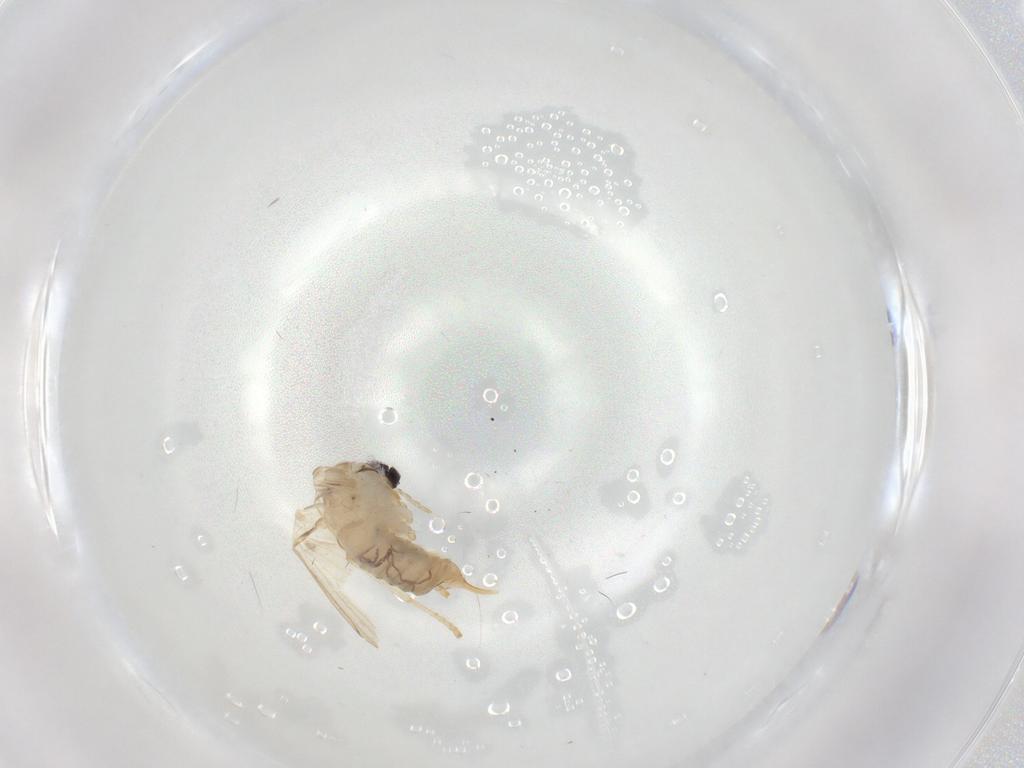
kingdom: Animalia
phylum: Arthropoda
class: Insecta
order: Diptera
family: Psychodidae
